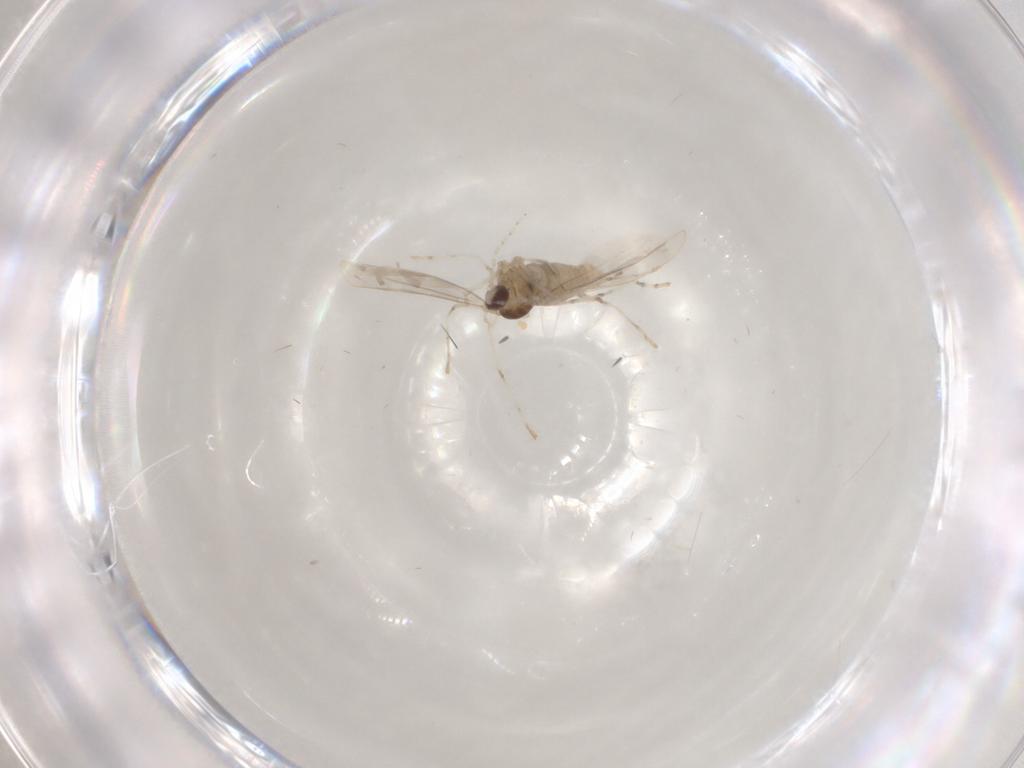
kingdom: Animalia
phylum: Arthropoda
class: Insecta
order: Diptera
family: Cecidomyiidae
